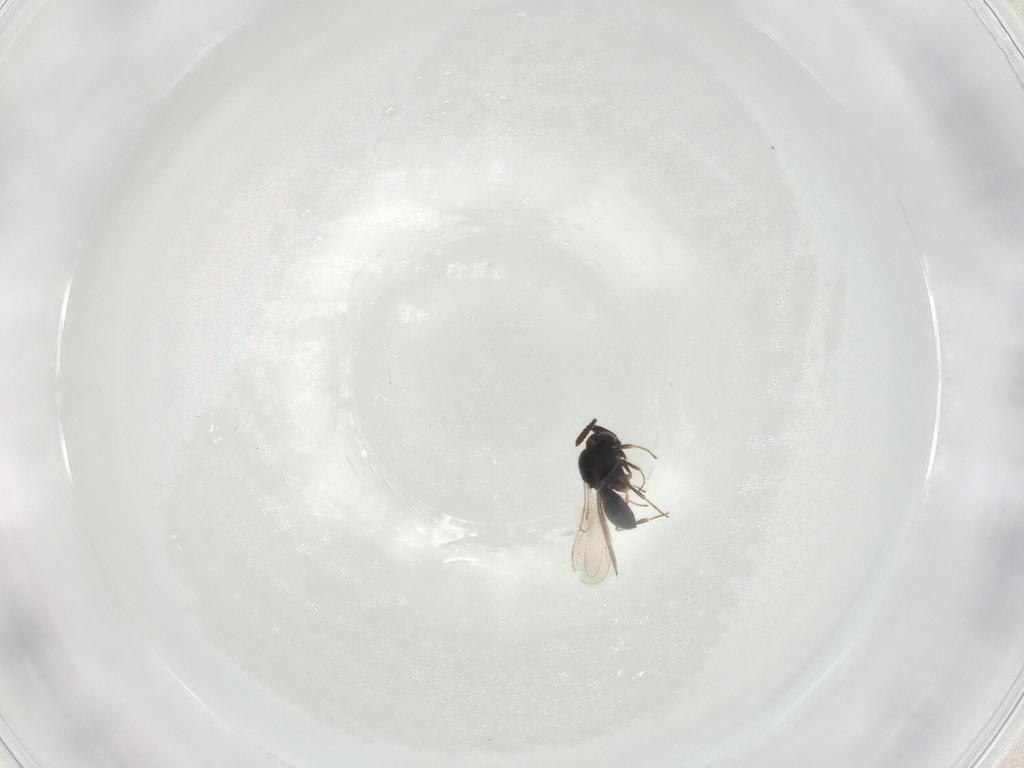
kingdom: Animalia
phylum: Arthropoda
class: Insecta
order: Hymenoptera
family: Scelionidae
